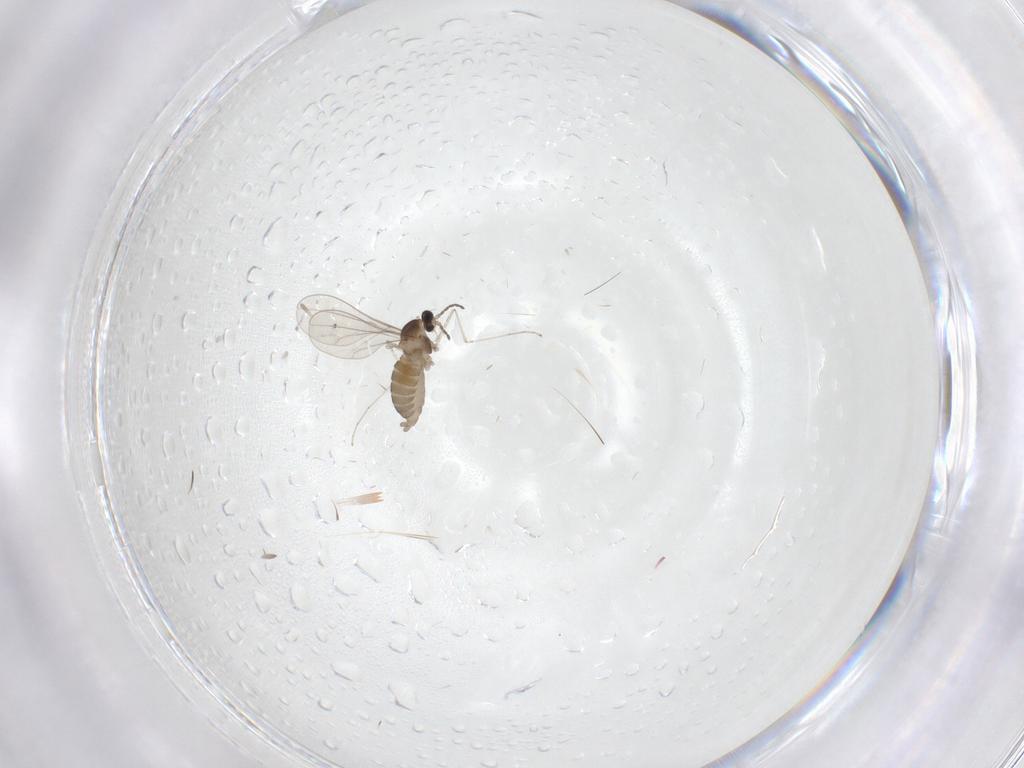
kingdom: Animalia
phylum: Arthropoda
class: Insecta
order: Diptera
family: Cecidomyiidae
